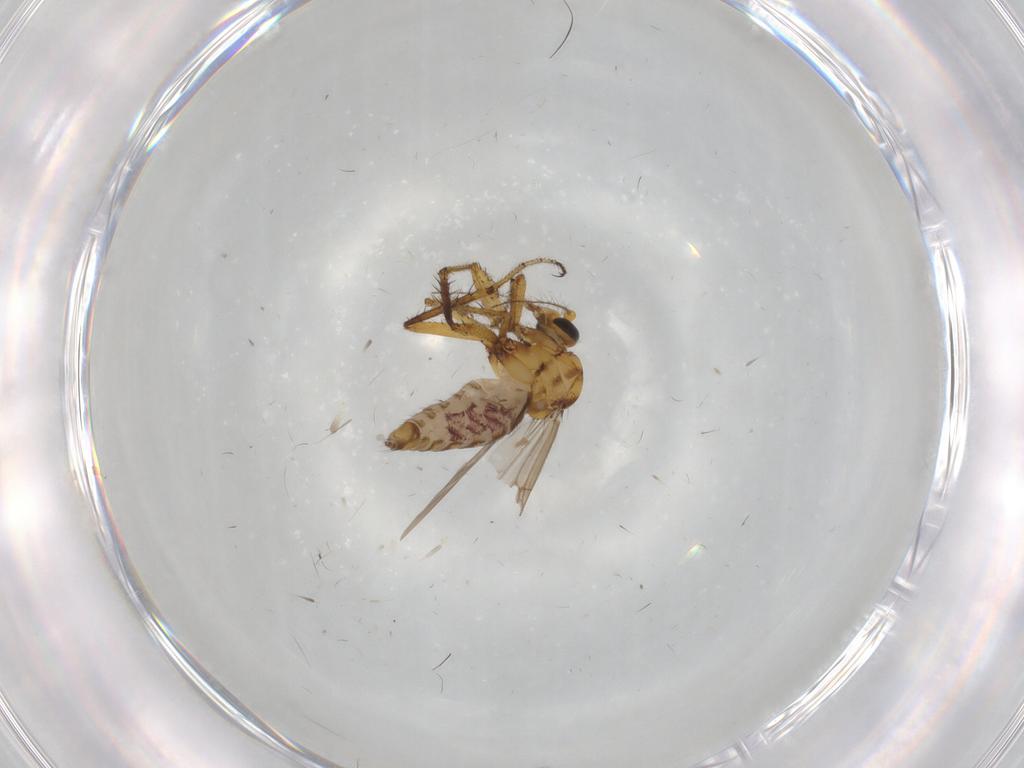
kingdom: Animalia
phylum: Arthropoda
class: Insecta
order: Diptera
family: Ceratopogonidae
